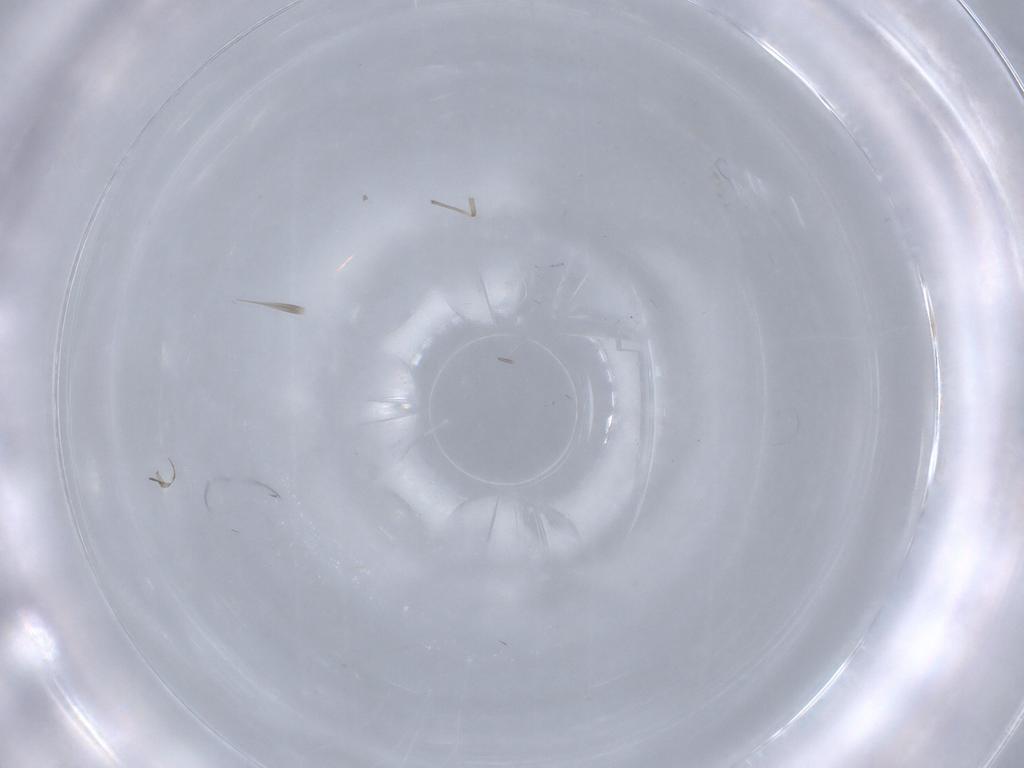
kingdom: Animalia
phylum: Arthropoda
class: Insecta
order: Diptera
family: Chironomidae
